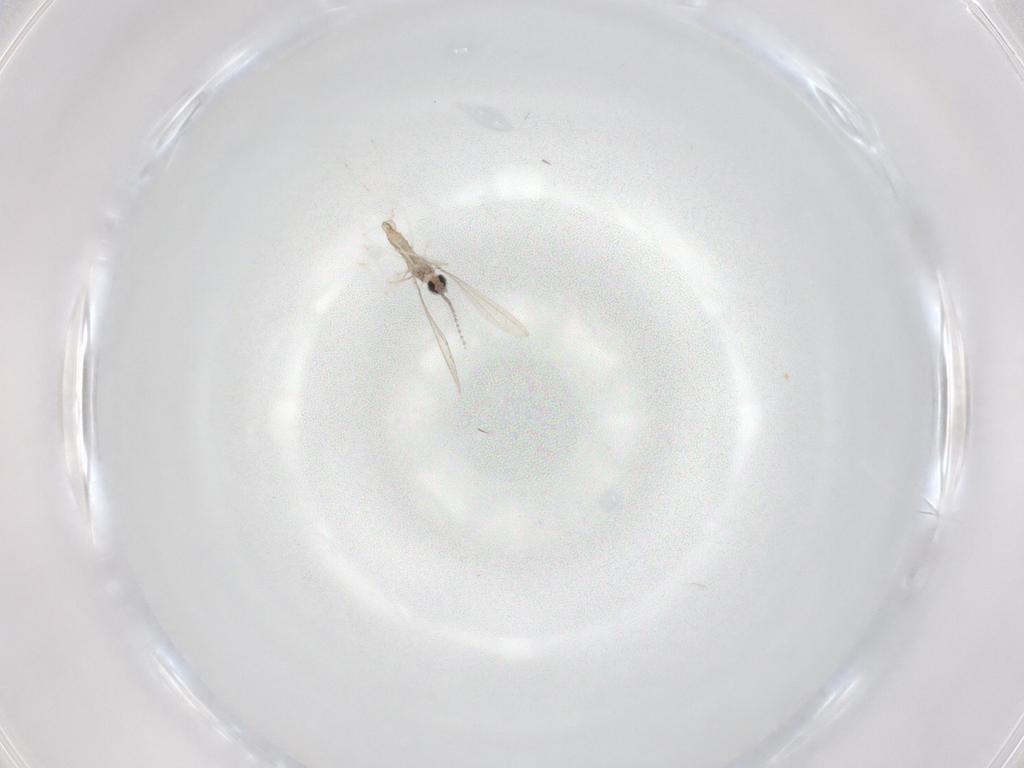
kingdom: Animalia
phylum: Arthropoda
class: Insecta
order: Diptera
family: Cecidomyiidae
